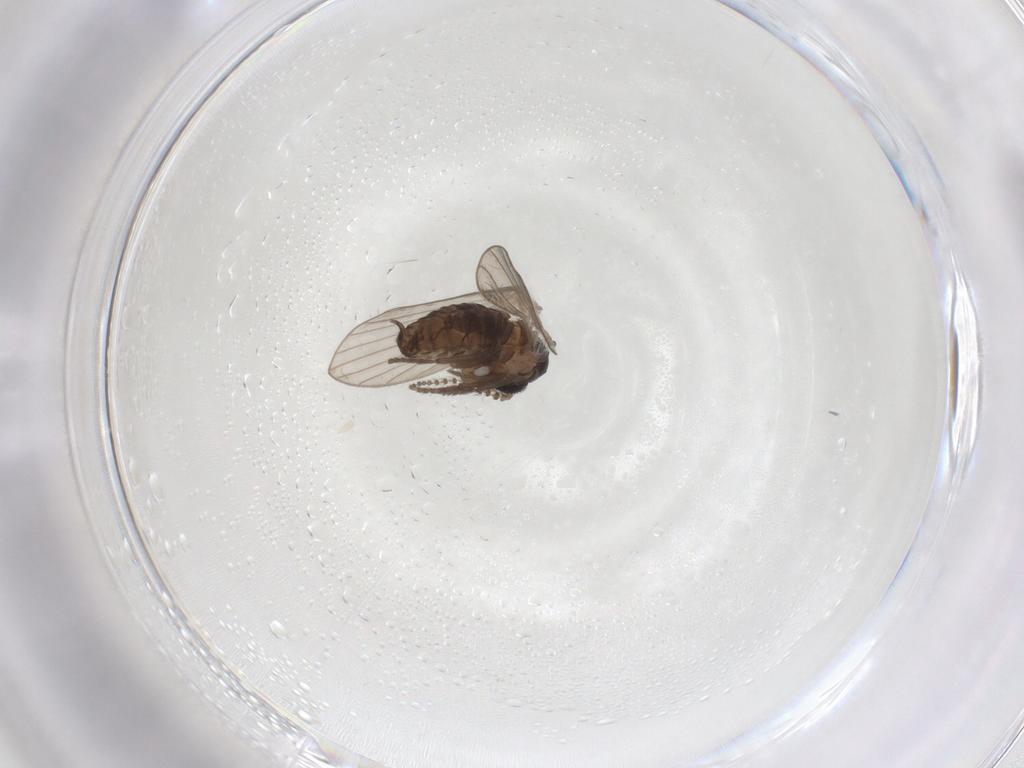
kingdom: Animalia
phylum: Arthropoda
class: Insecta
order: Diptera
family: Psychodidae
